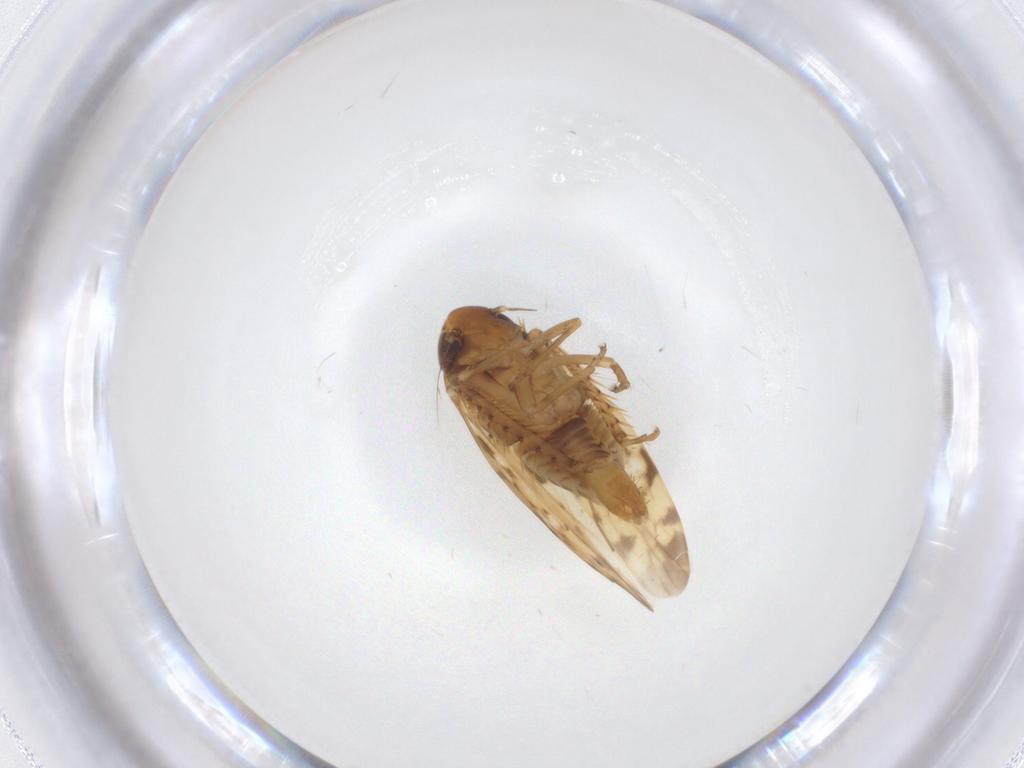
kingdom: Animalia
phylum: Arthropoda
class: Insecta
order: Hemiptera
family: Cicadellidae
